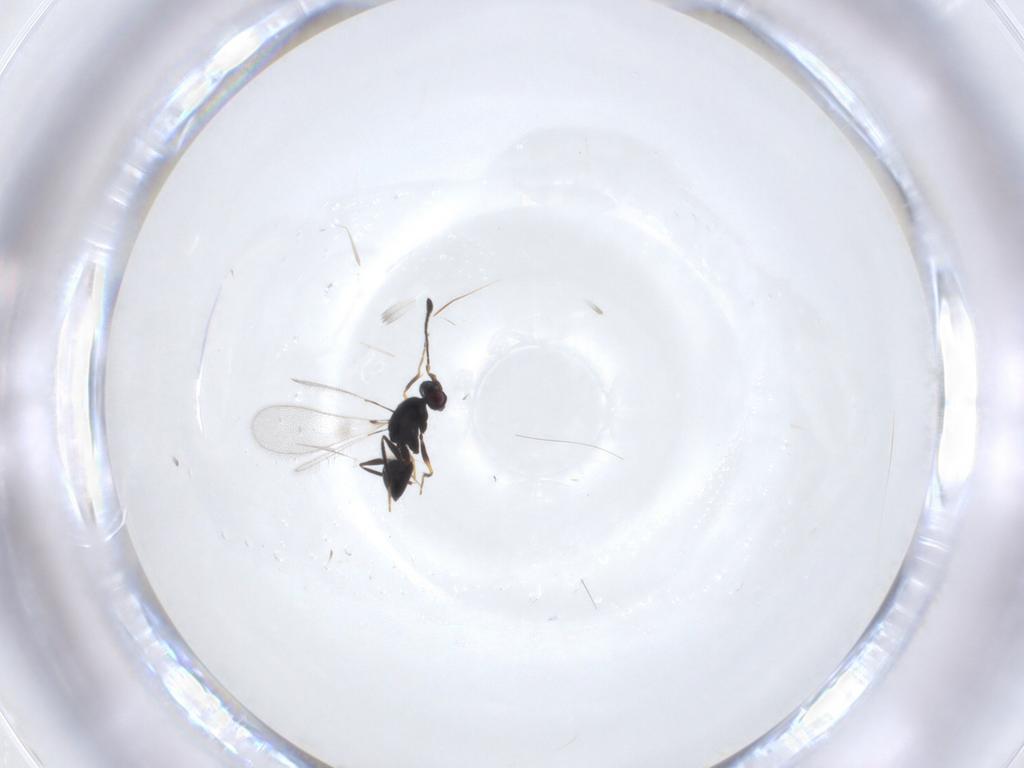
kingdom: Animalia
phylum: Arthropoda
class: Insecta
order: Hymenoptera
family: Mymaridae
